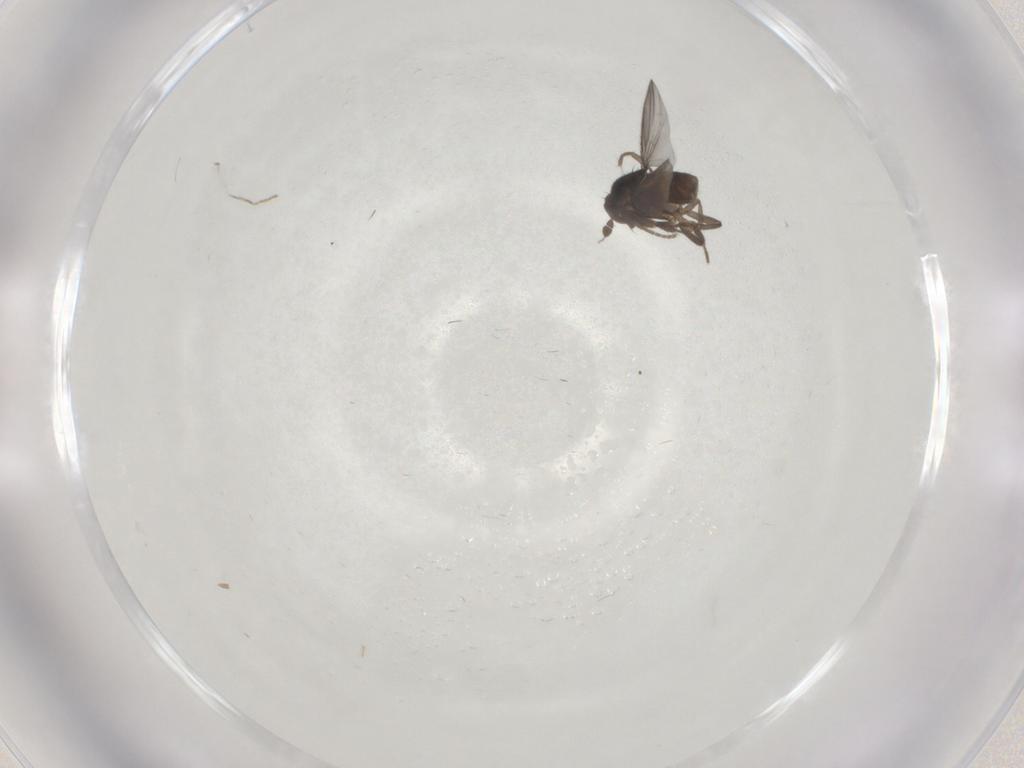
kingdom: Animalia
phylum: Arthropoda
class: Insecta
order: Diptera
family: Sphaeroceridae
